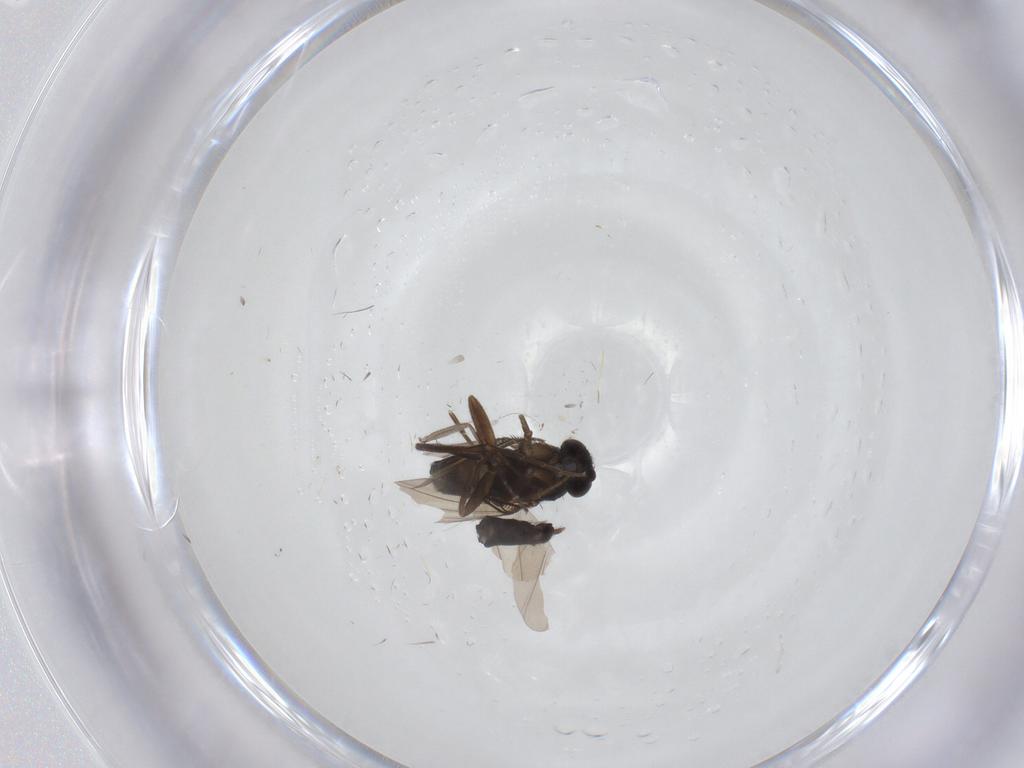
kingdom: Animalia
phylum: Arthropoda
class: Insecta
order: Diptera
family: Phoridae
